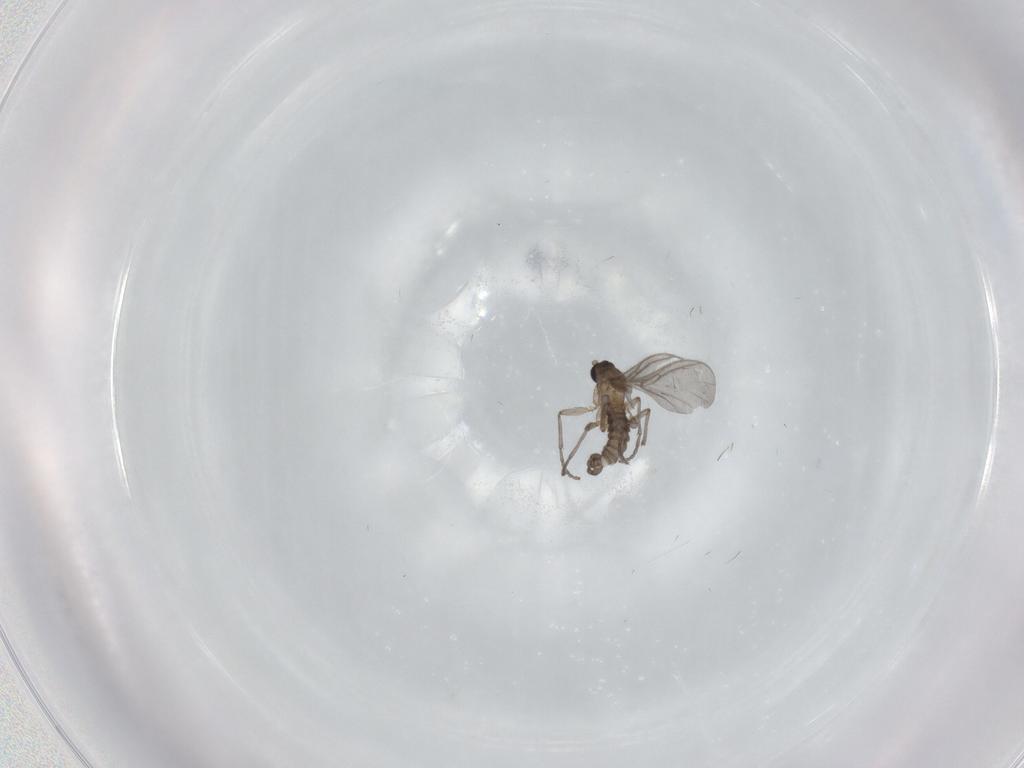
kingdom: Animalia
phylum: Arthropoda
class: Insecta
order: Diptera
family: Sciaridae
